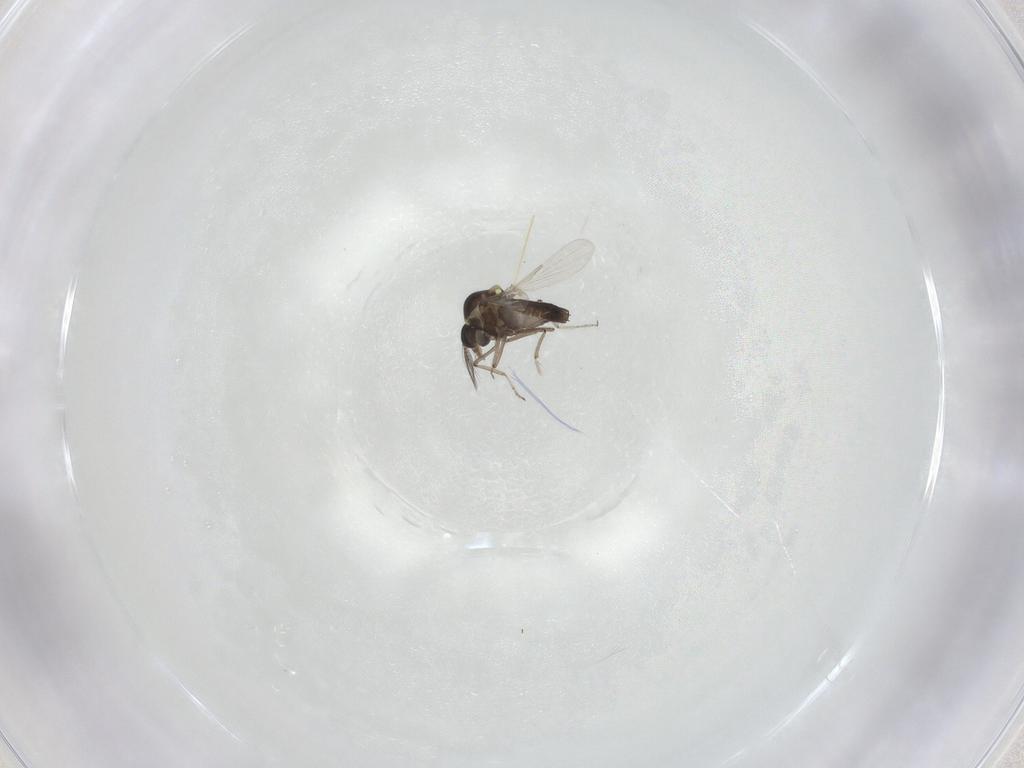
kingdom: Animalia
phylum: Arthropoda
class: Insecta
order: Diptera
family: Ceratopogonidae
